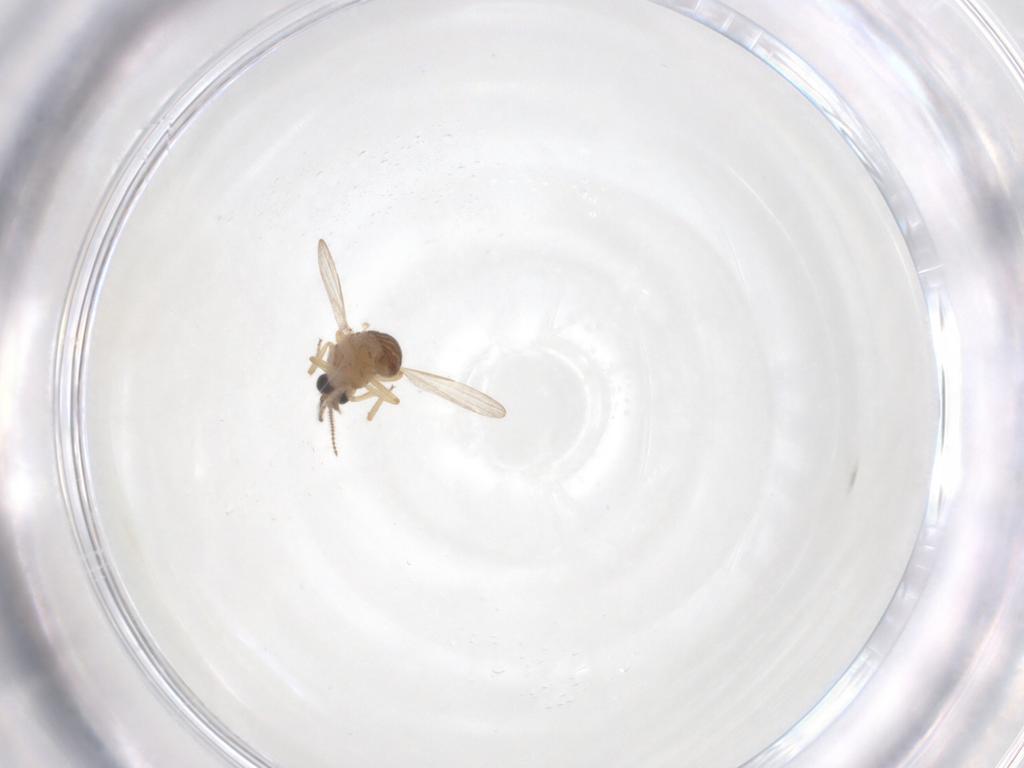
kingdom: Animalia
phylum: Arthropoda
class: Insecta
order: Diptera
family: Ceratopogonidae
